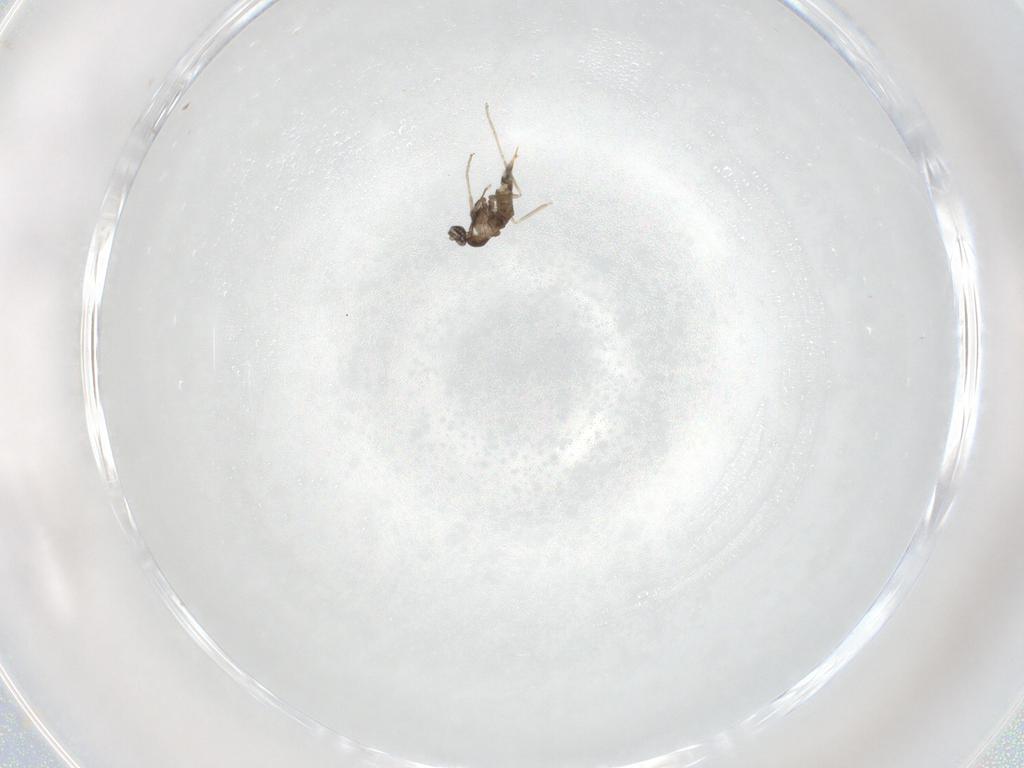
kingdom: Animalia
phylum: Arthropoda
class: Insecta
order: Diptera
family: Cecidomyiidae
